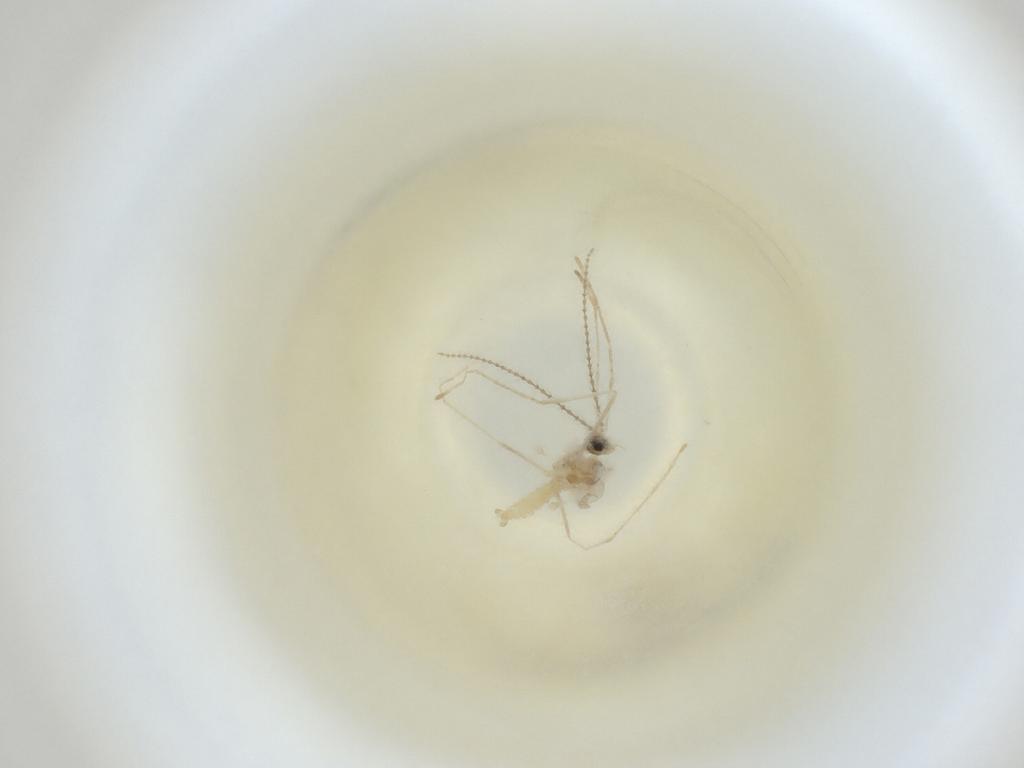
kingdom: Animalia
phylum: Arthropoda
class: Insecta
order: Diptera
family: Cecidomyiidae
